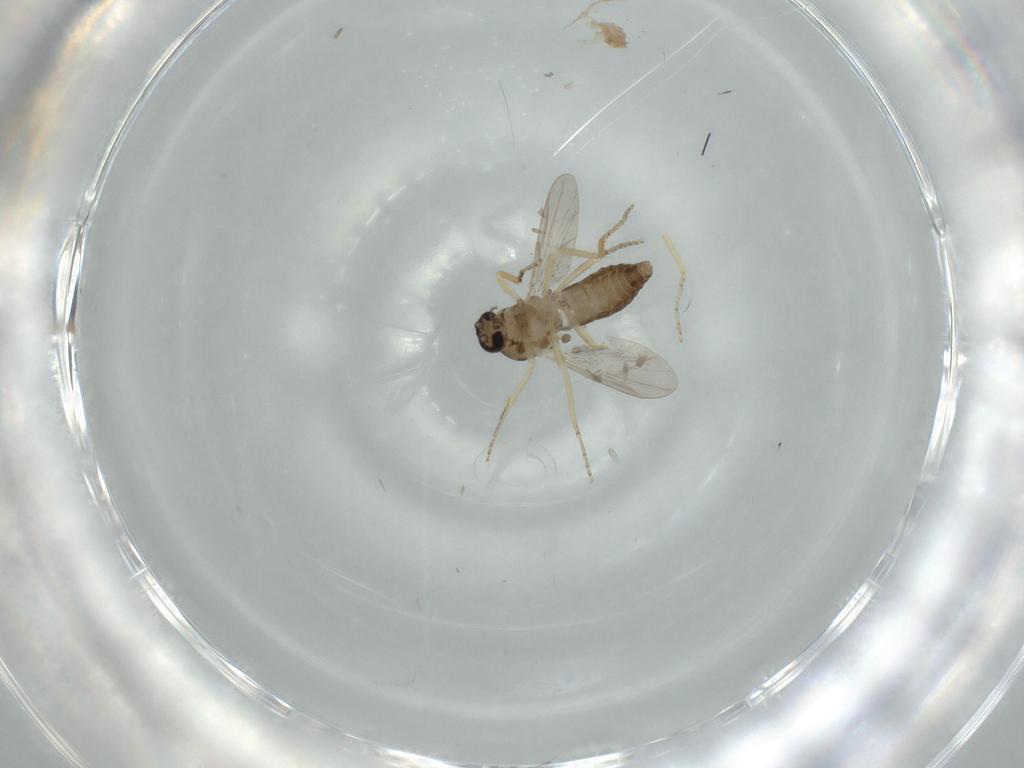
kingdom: Animalia
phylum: Arthropoda
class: Insecta
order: Diptera
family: Ceratopogonidae
